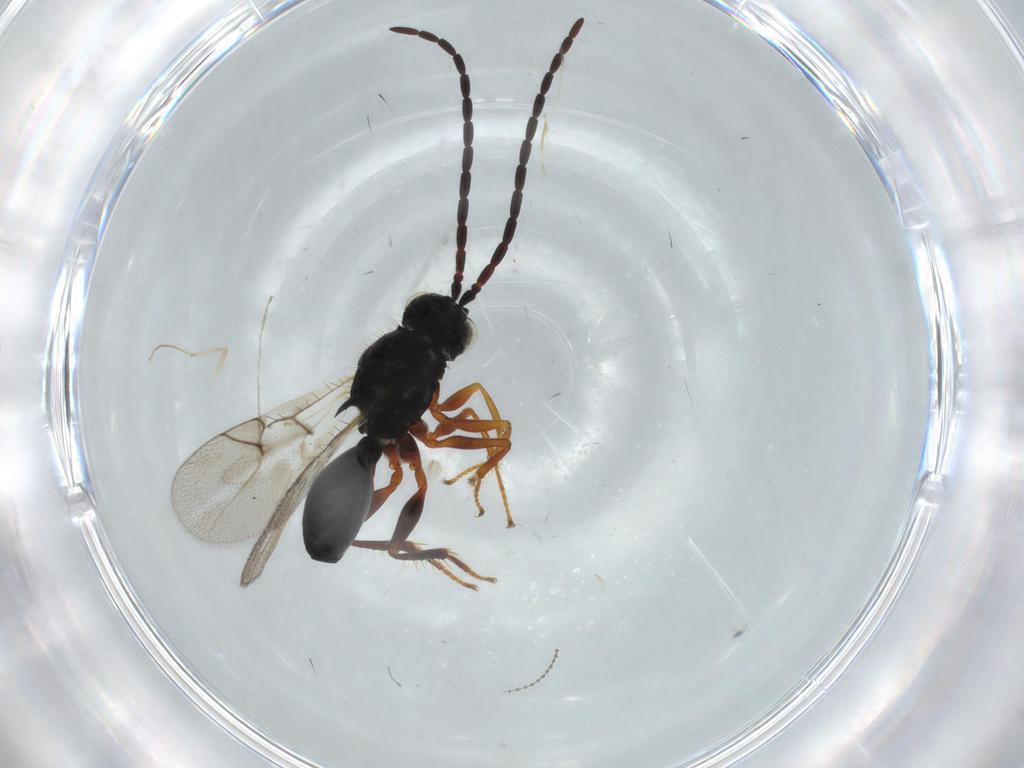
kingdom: Animalia
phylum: Arthropoda
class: Insecta
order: Hymenoptera
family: Figitidae
